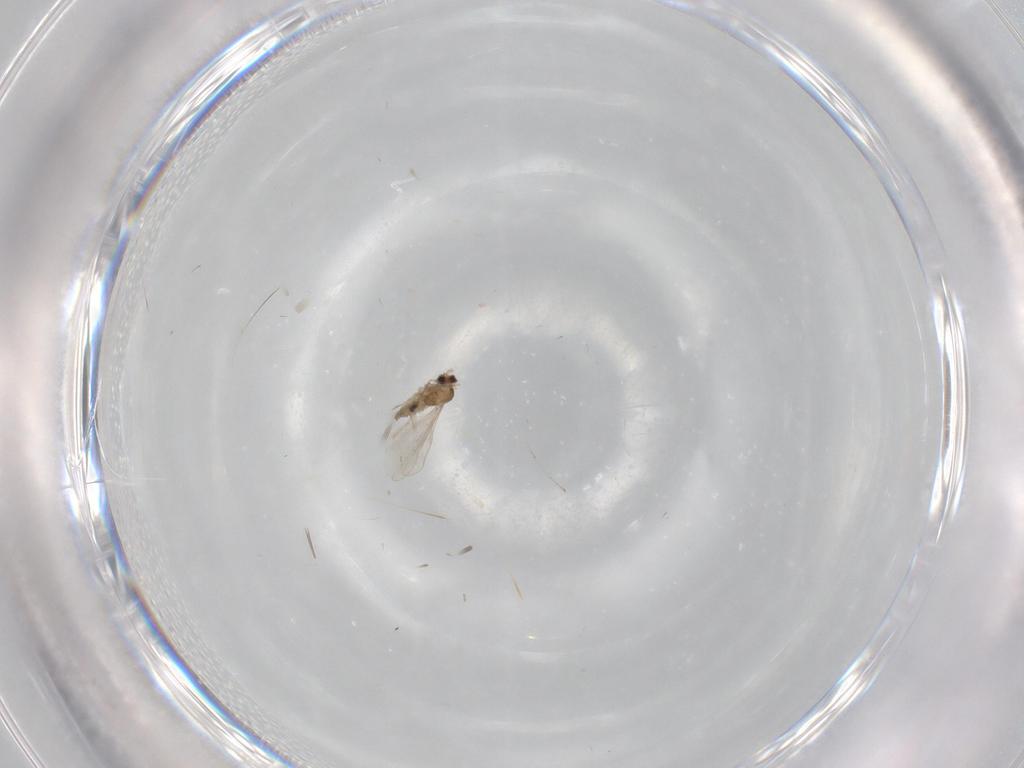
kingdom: Animalia
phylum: Arthropoda
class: Insecta
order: Diptera
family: Cecidomyiidae
